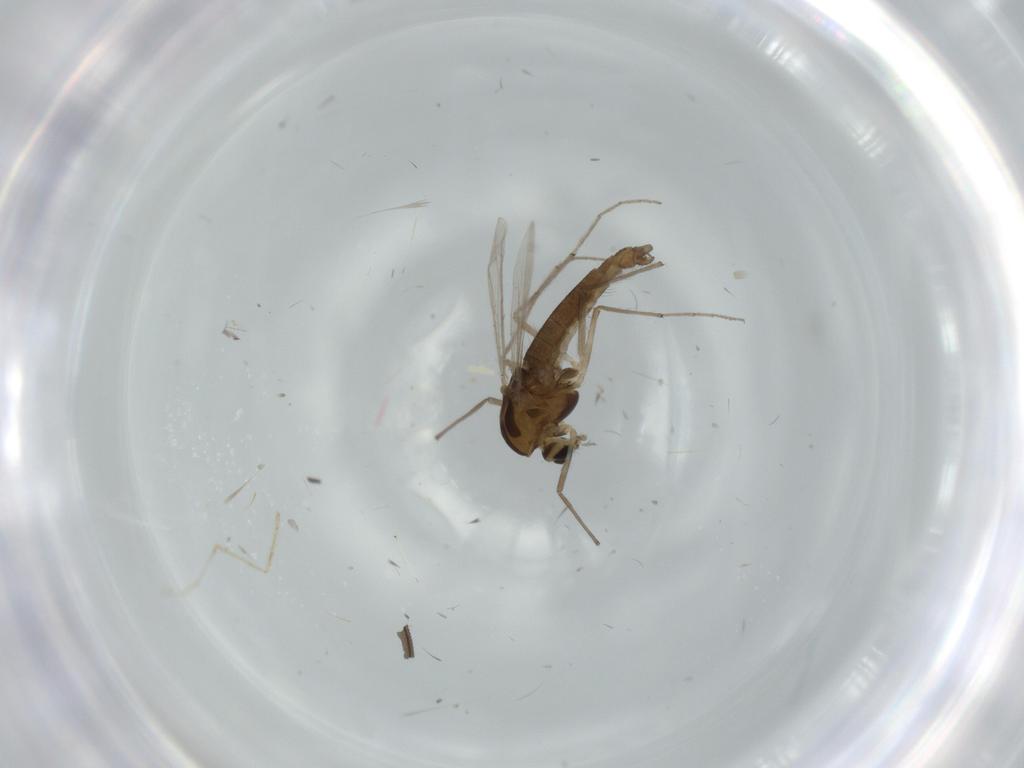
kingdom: Animalia
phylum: Arthropoda
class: Insecta
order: Diptera
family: Chironomidae
